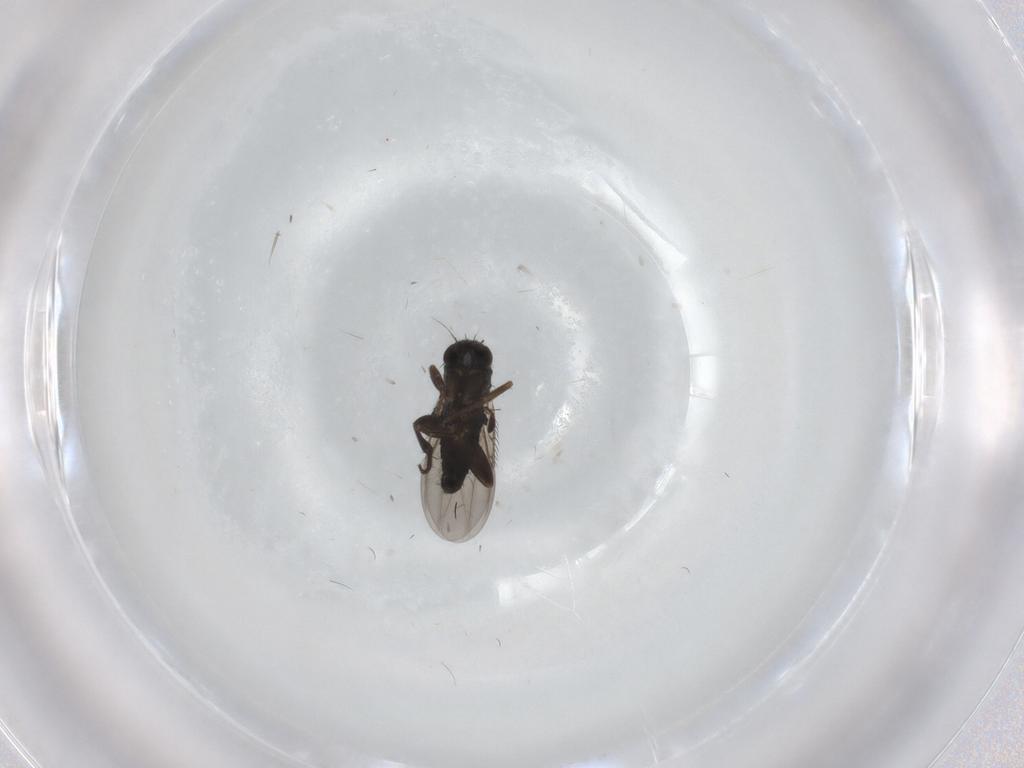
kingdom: Animalia
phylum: Arthropoda
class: Insecta
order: Diptera
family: Phoridae
